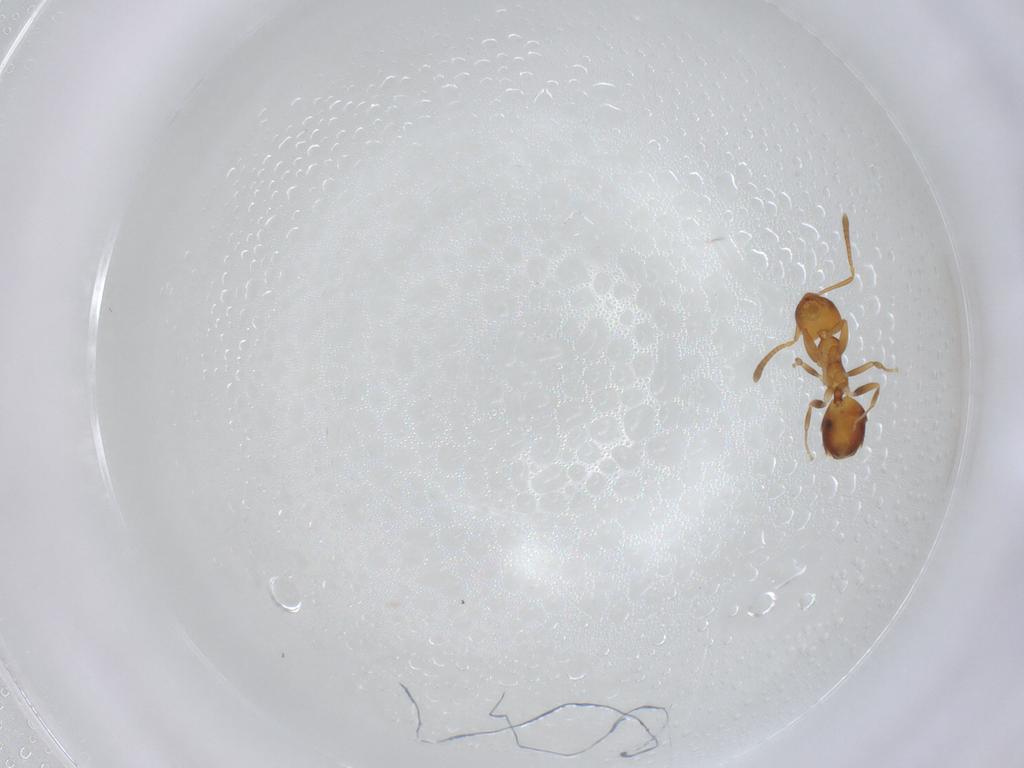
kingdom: Animalia
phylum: Arthropoda
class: Insecta
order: Hymenoptera
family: Formicidae
